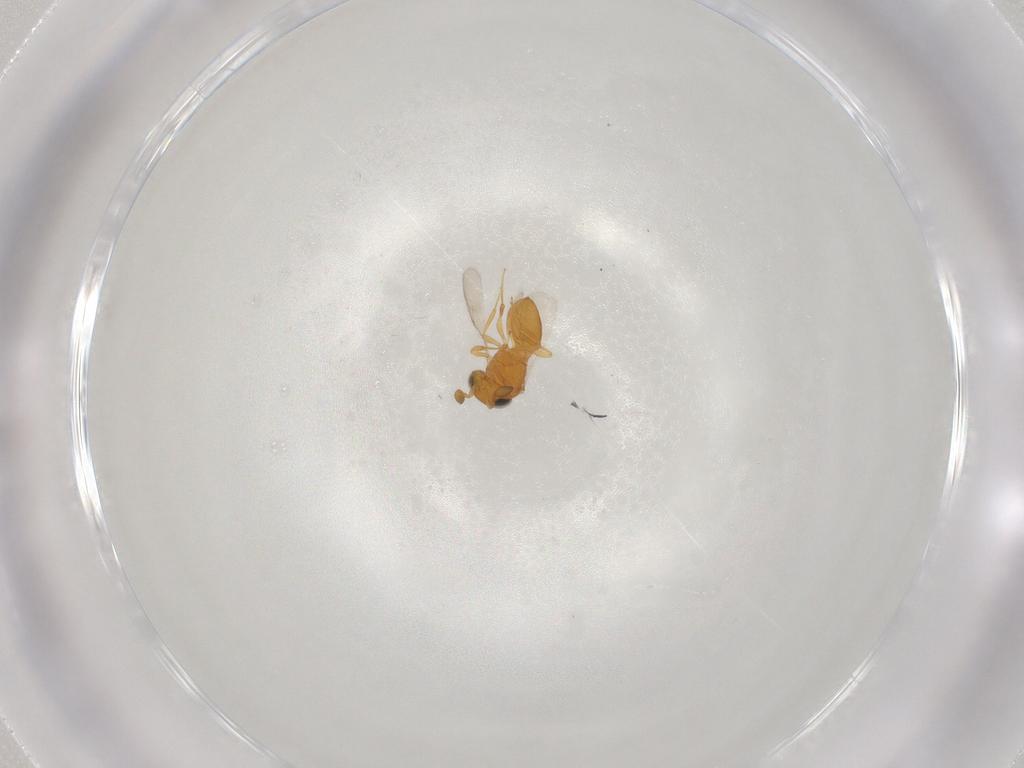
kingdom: Animalia
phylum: Arthropoda
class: Insecta
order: Hymenoptera
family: Scelionidae
